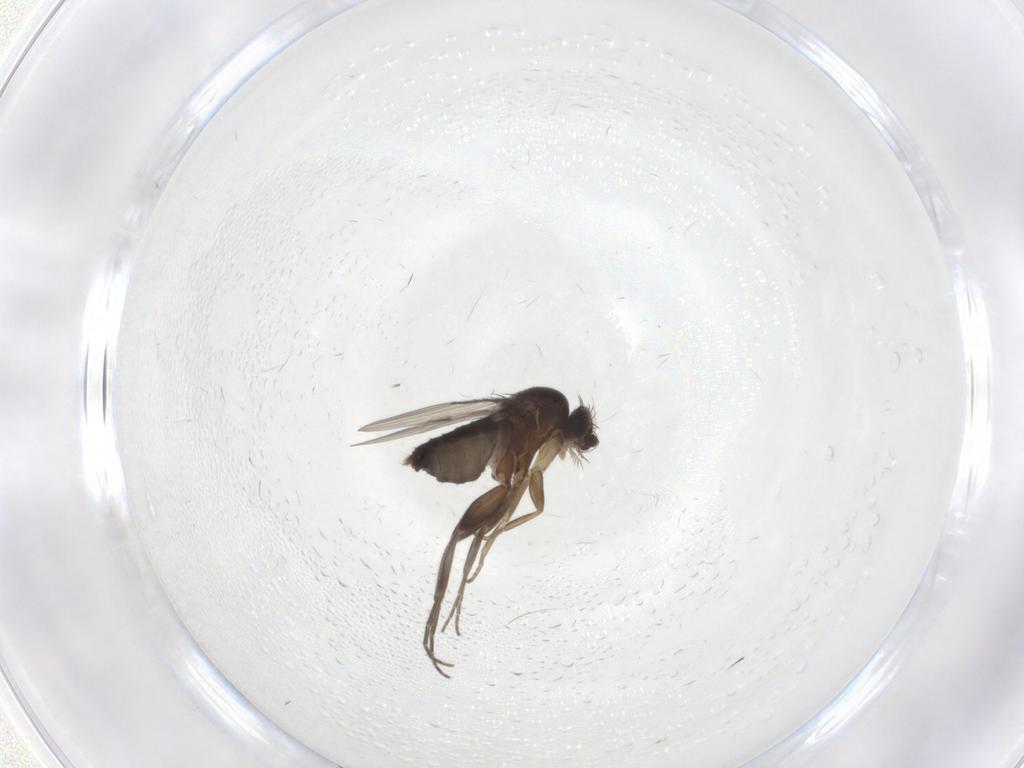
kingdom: Animalia
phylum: Arthropoda
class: Insecta
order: Diptera
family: Phoridae
